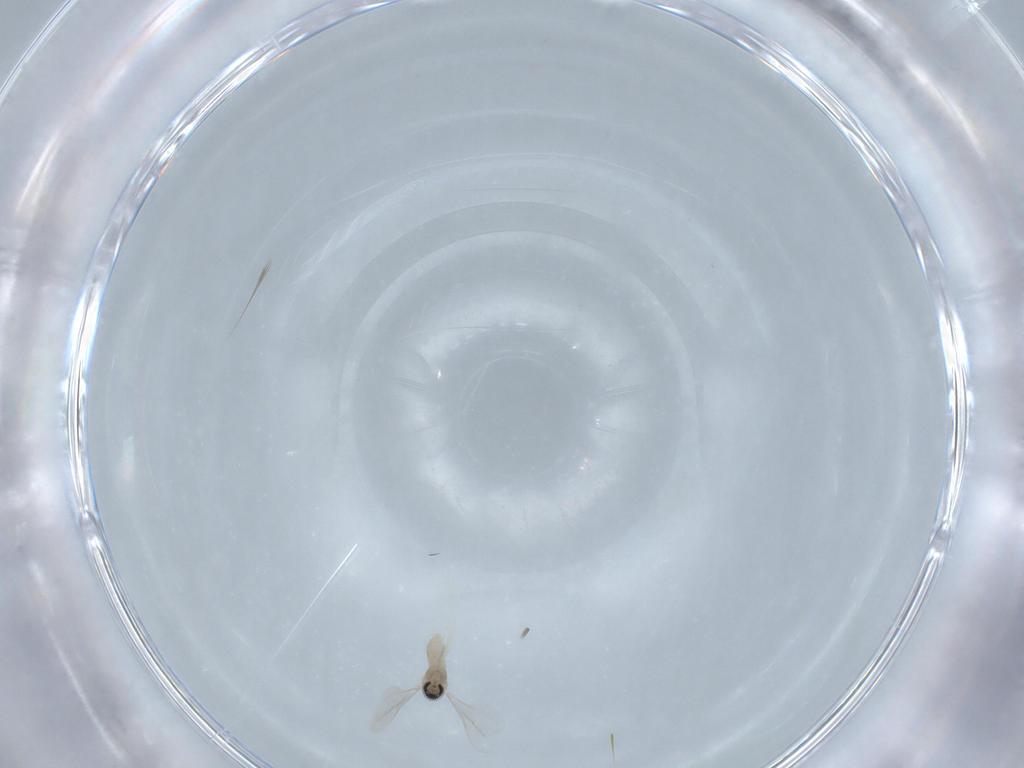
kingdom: Animalia
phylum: Arthropoda
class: Insecta
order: Diptera
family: Cecidomyiidae
